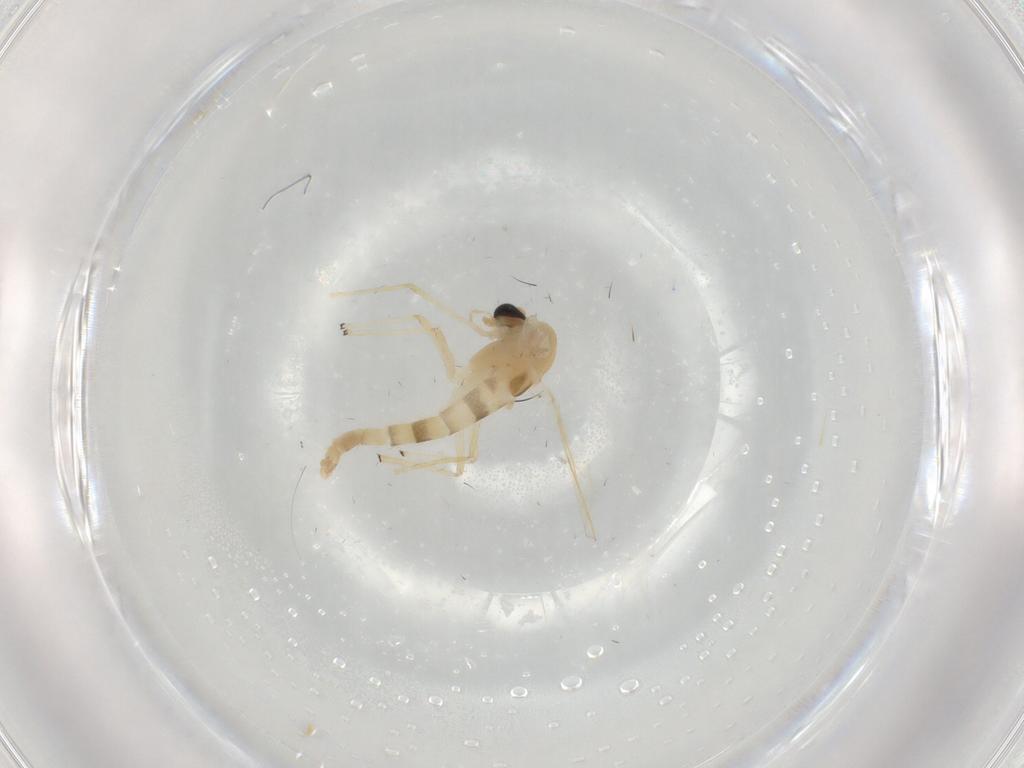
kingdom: Animalia
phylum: Arthropoda
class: Insecta
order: Diptera
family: Chironomidae
